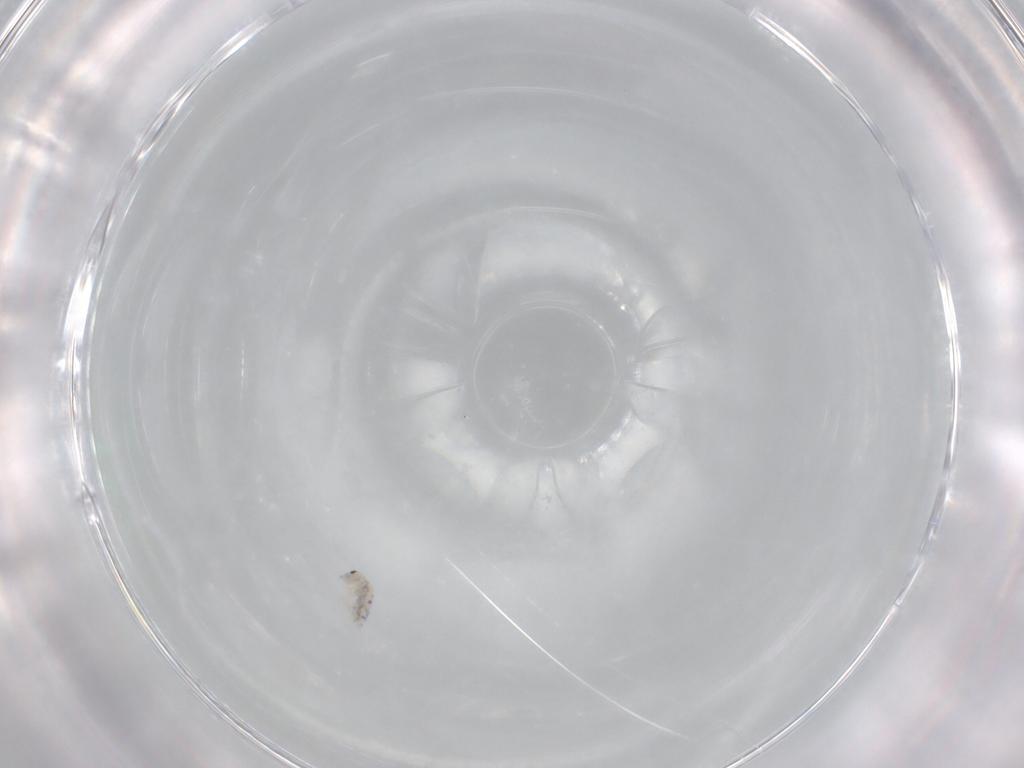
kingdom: Animalia
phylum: Arthropoda
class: Collembola
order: Entomobryomorpha
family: Entomobryidae
